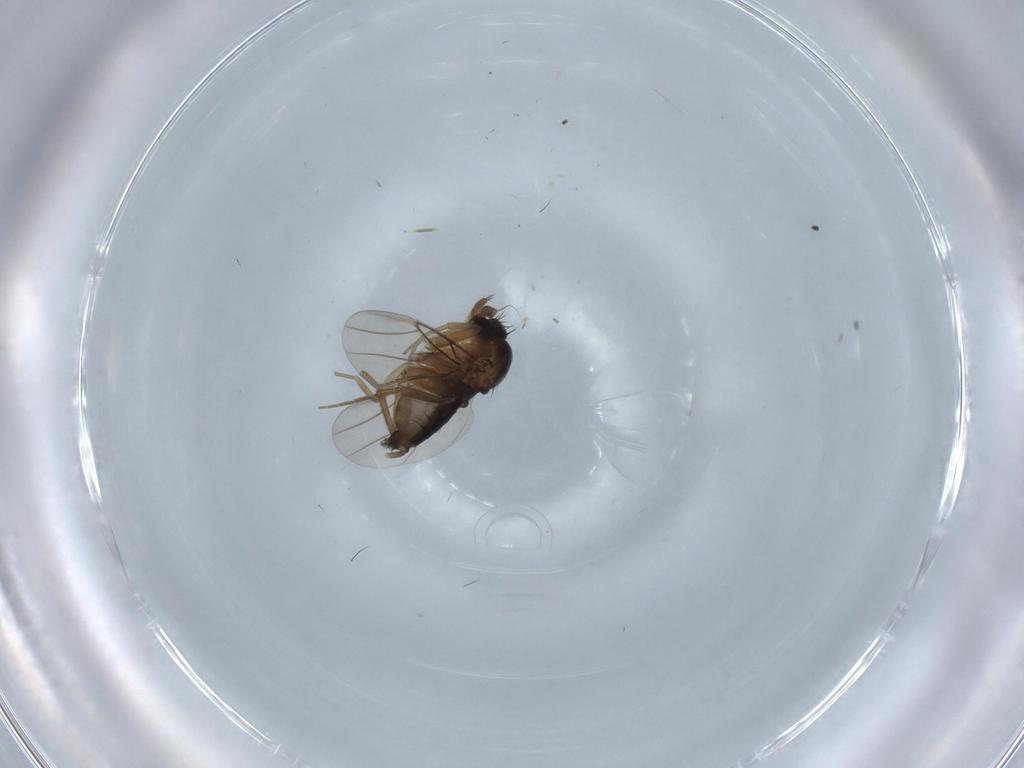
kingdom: Animalia
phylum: Arthropoda
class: Insecta
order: Diptera
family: Phoridae
